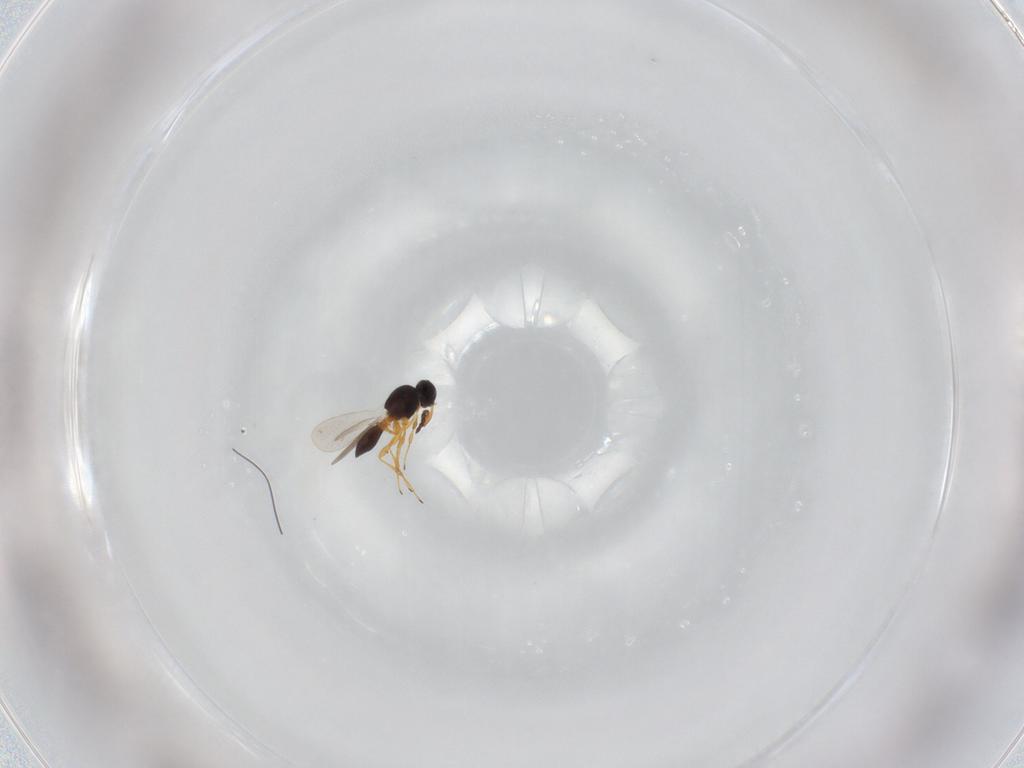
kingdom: Animalia
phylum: Arthropoda
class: Insecta
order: Hymenoptera
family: Platygastridae
